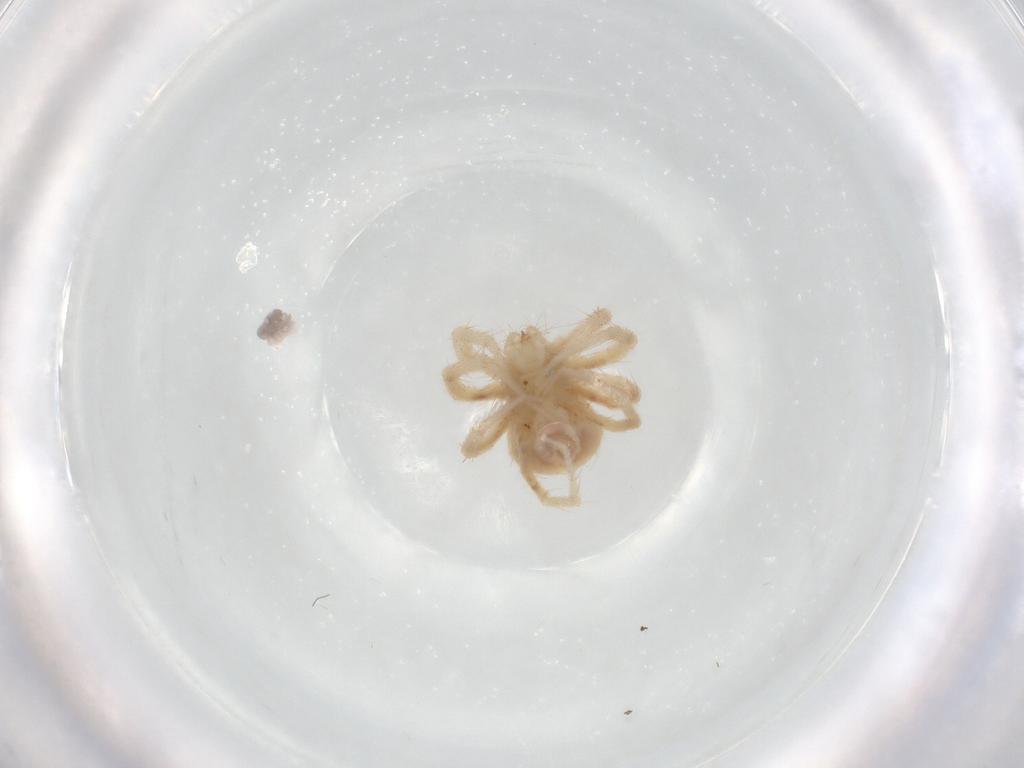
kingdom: Animalia
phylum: Arthropoda
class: Arachnida
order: Trombidiformes
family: Anystidae
